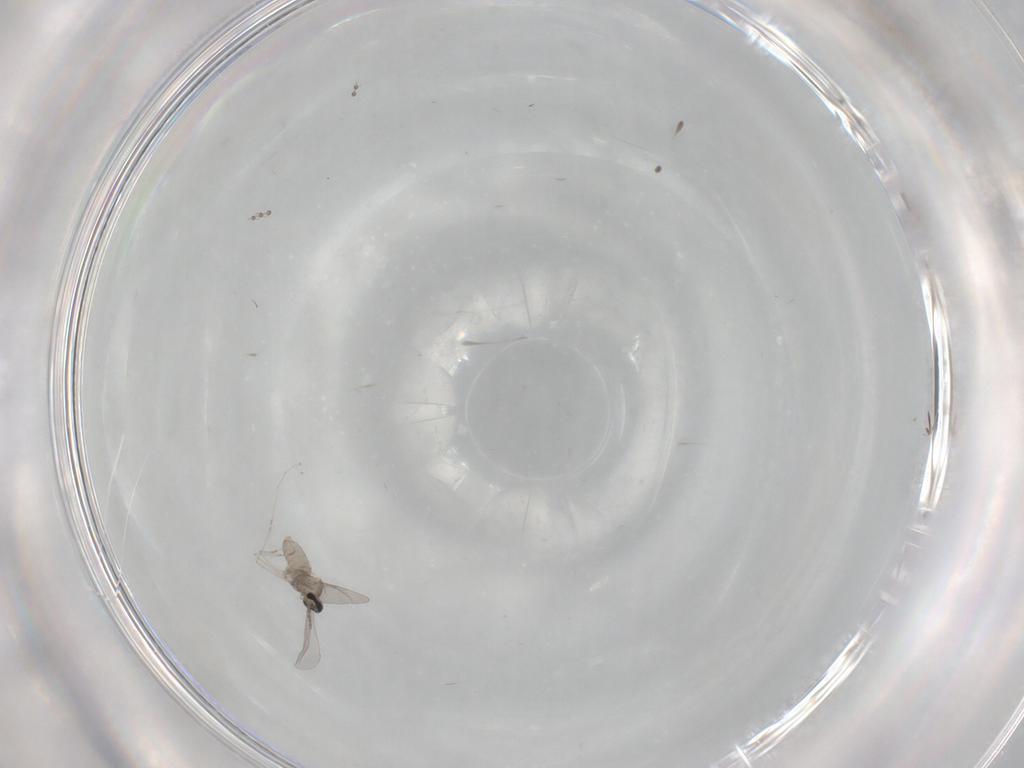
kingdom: Animalia
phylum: Arthropoda
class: Insecta
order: Diptera
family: Psychodidae
